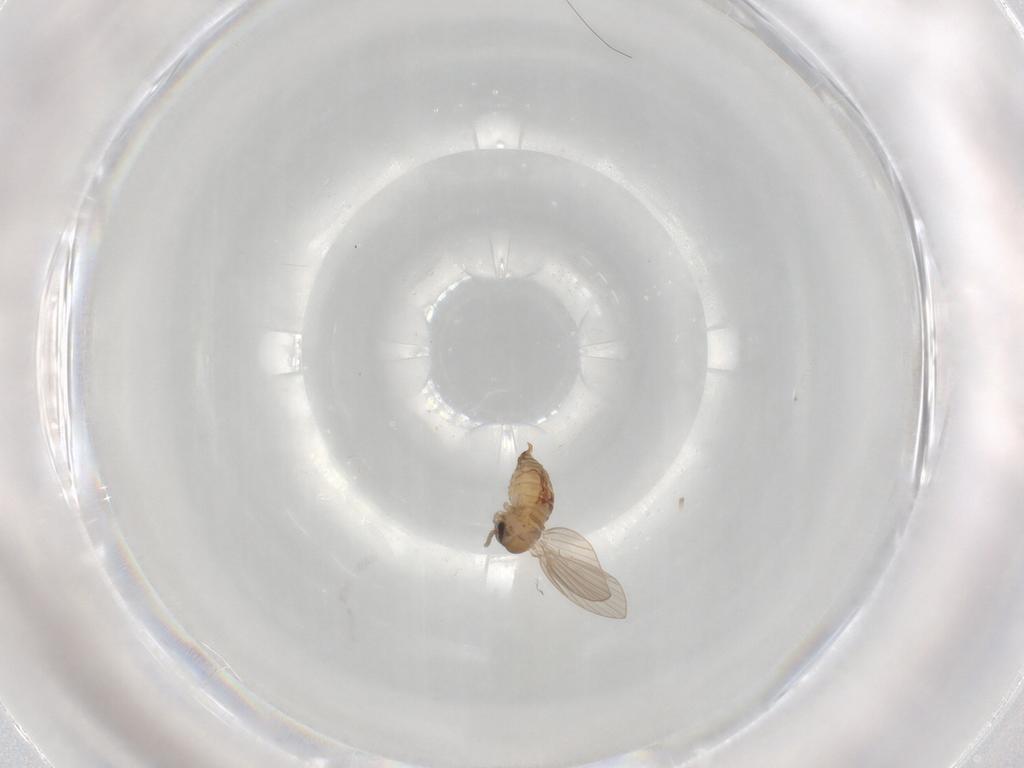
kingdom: Animalia
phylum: Arthropoda
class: Insecta
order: Diptera
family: Psychodidae
